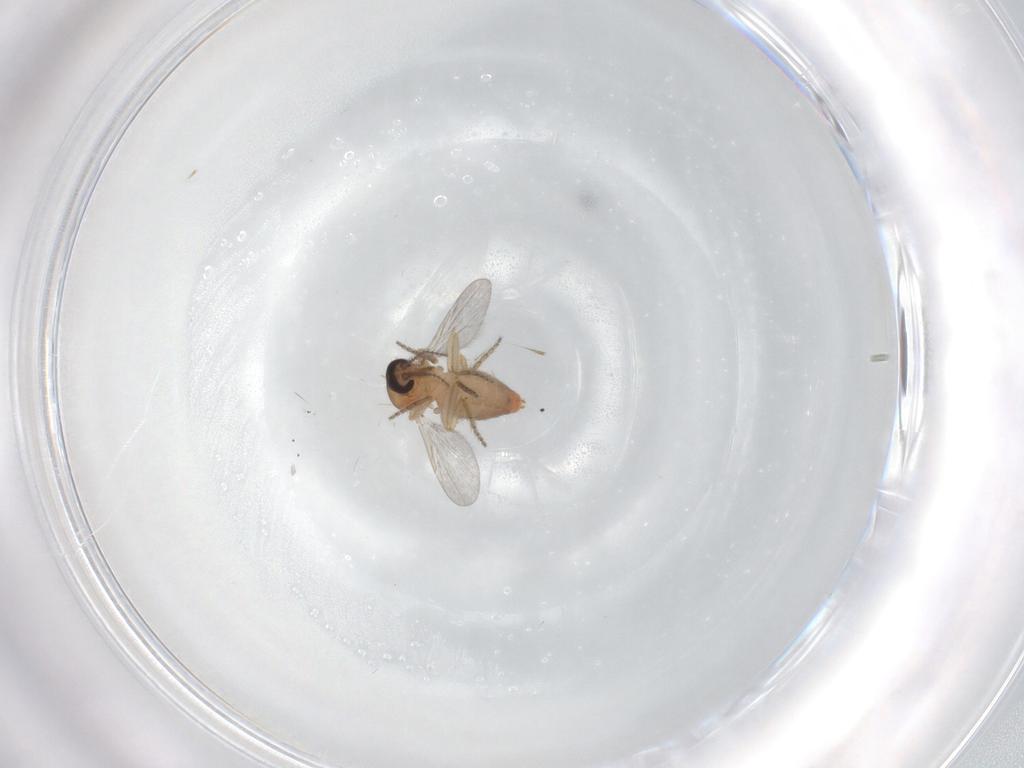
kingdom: Animalia
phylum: Arthropoda
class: Insecta
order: Diptera
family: Ceratopogonidae
